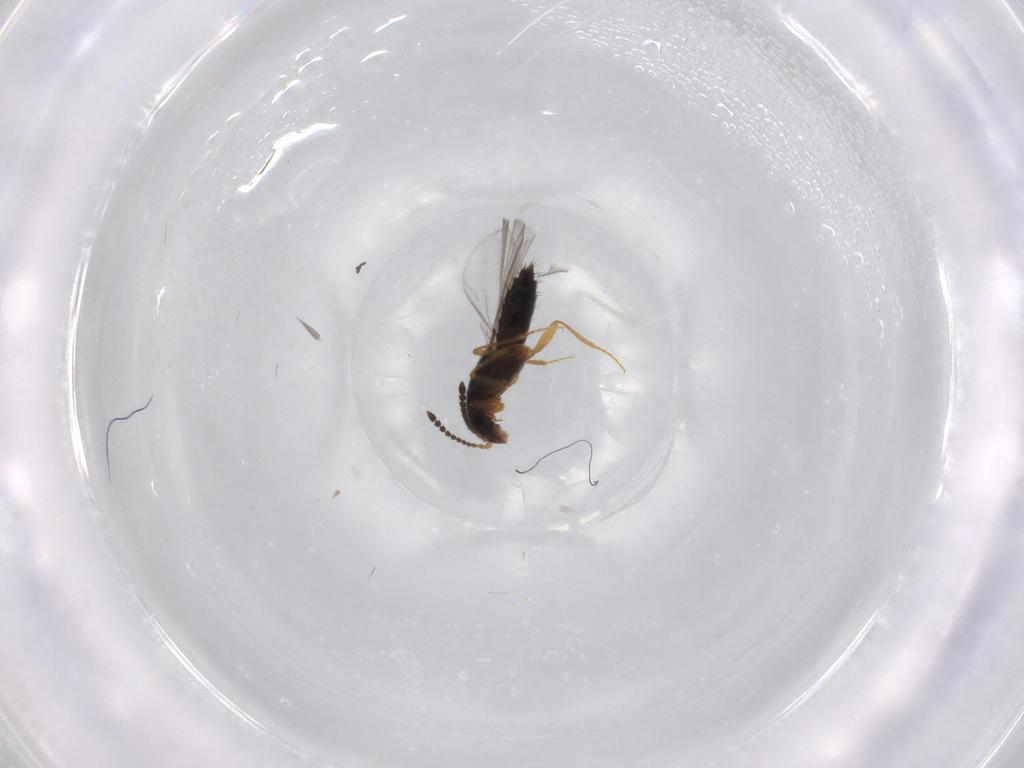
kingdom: Animalia
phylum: Arthropoda
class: Insecta
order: Coleoptera
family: Staphylinidae
